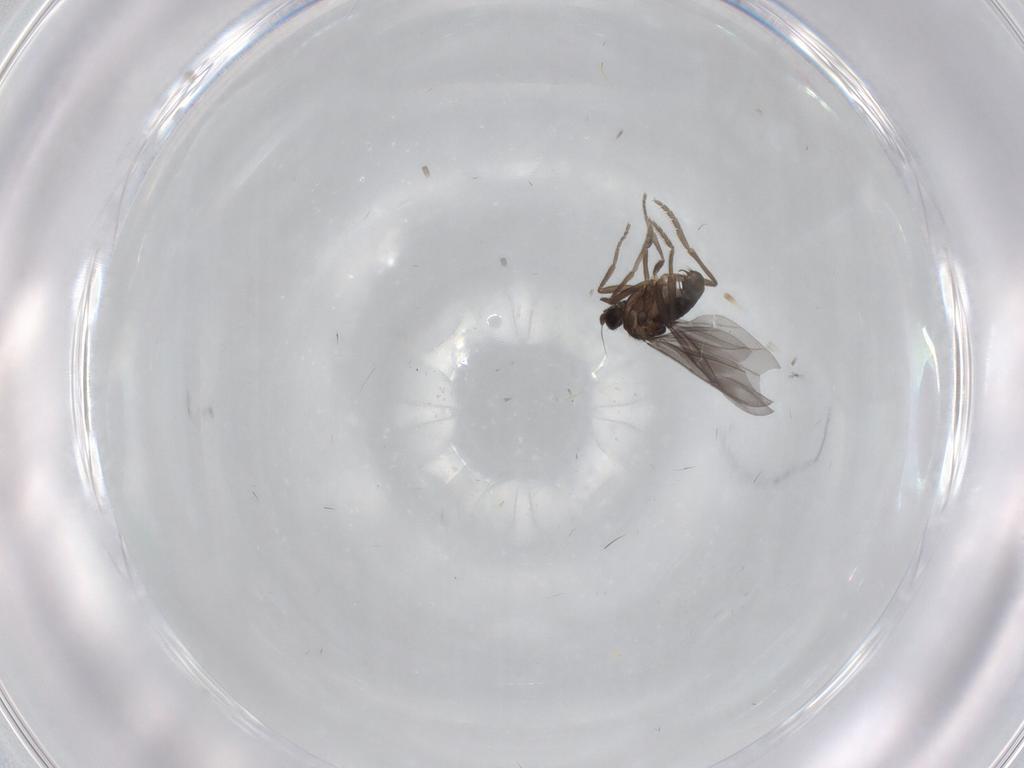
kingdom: Animalia
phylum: Arthropoda
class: Insecta
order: Diptera
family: Phoridae
